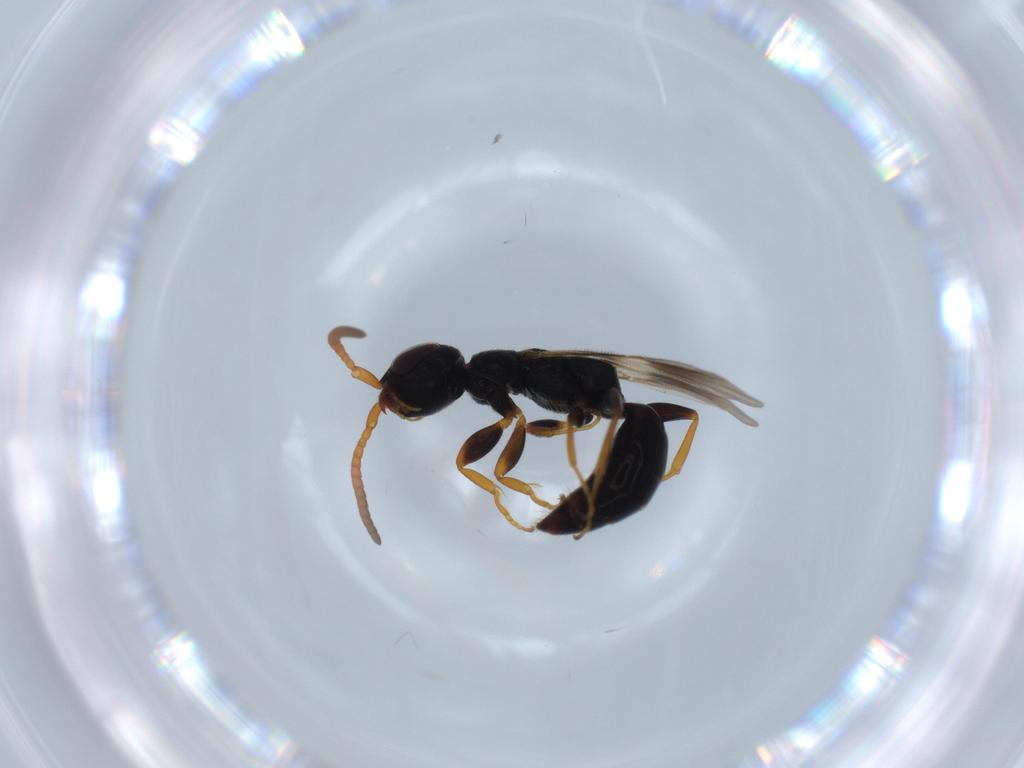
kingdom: Animalia
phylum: Arthropoda
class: Insecta
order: Hymenoptera
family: Bethylidae
